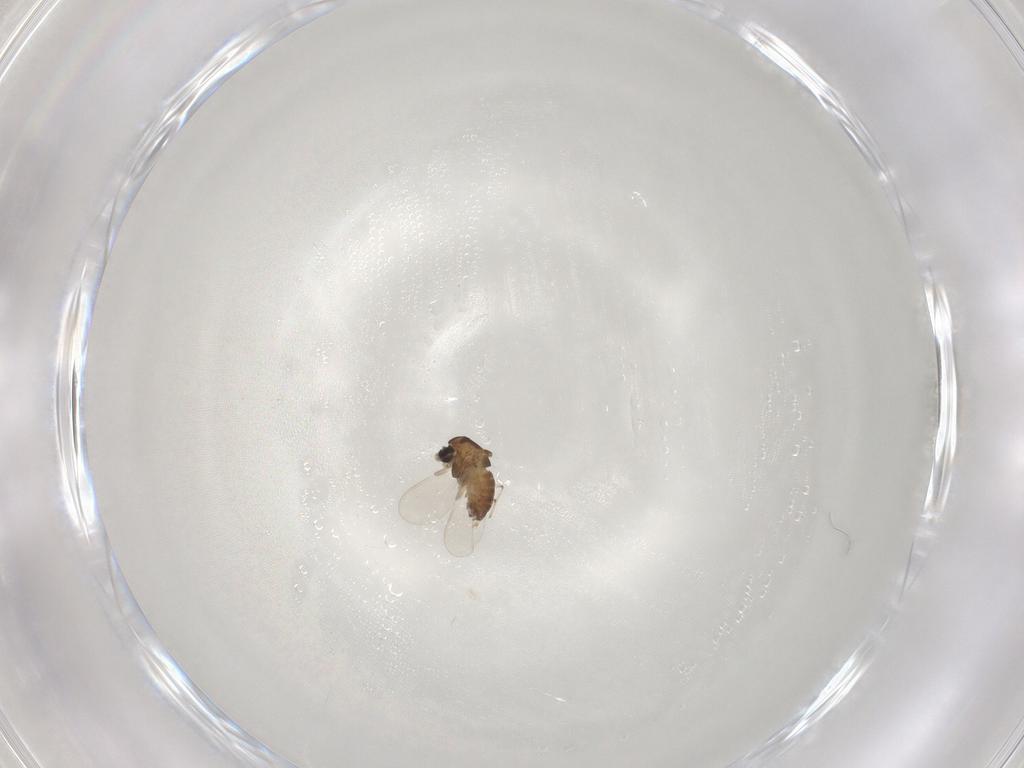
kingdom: Animalia
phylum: Arthropoda
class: Insecta
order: Diptera
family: Chironomidae
